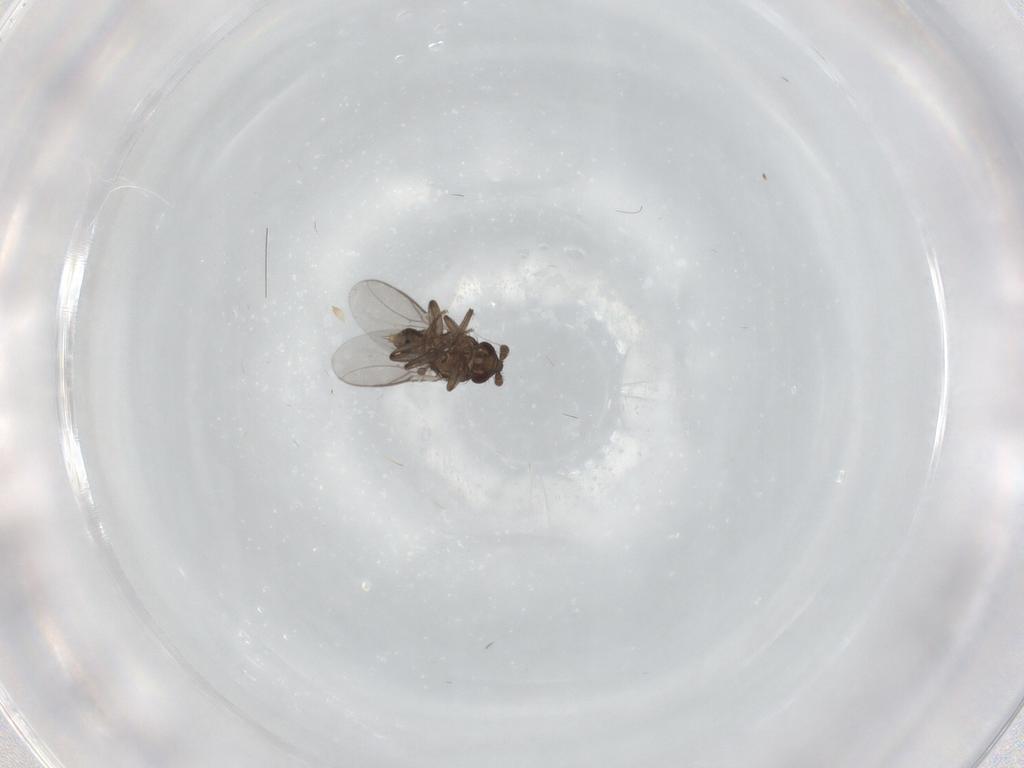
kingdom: Animalia
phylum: Arthropoda
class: Insecta
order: Diptera
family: Sphaeroceridae
